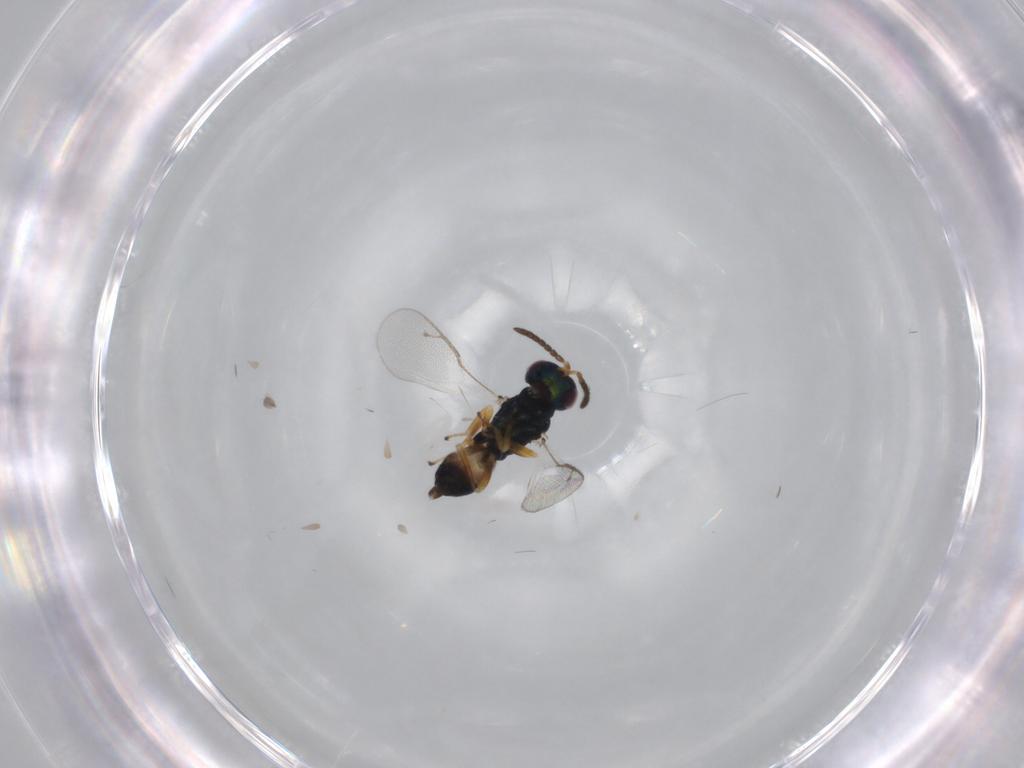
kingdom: Animalia
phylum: Arthropoda
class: Insecta
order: Hymenoptera
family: Pteromalidae
